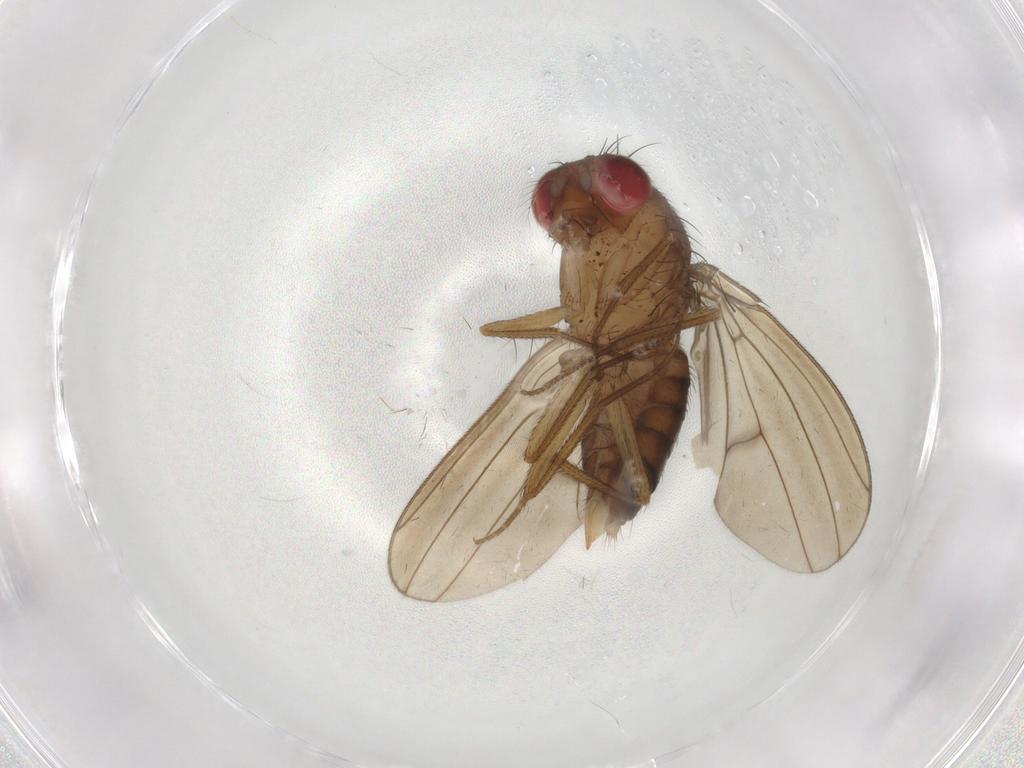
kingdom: Animalia
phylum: Arthropoda
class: Insecta
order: Diptera
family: Drosophilidae
